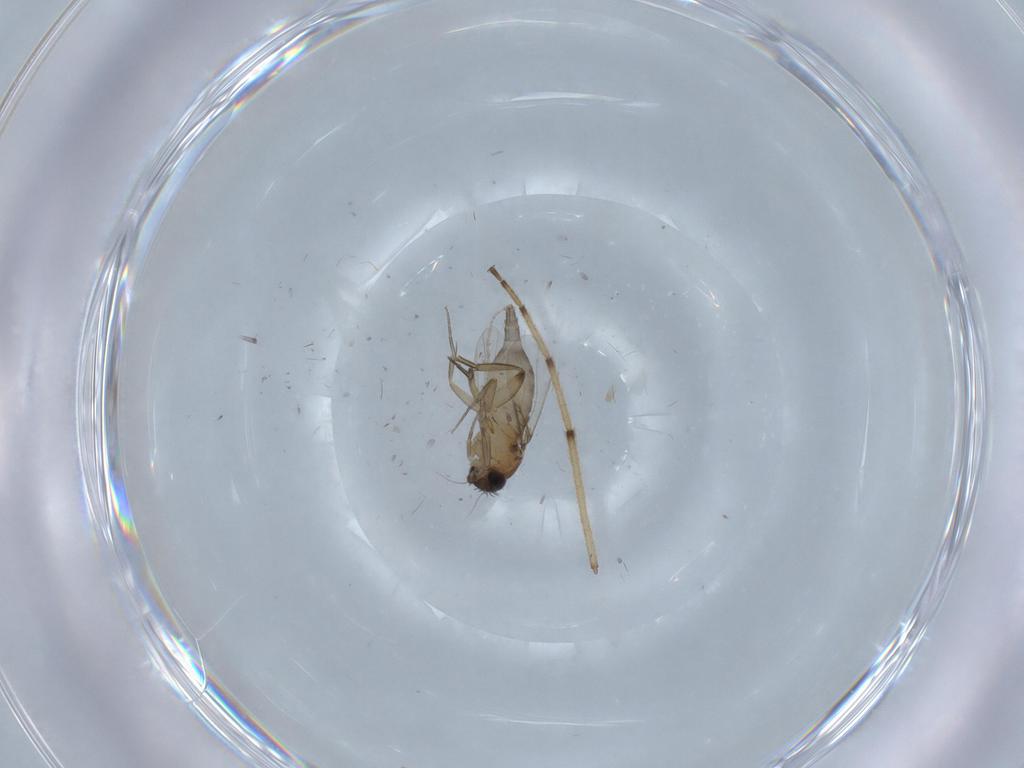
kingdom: Animalia
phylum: Arthropoda
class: Insecta
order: Diptera
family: Phoridae
